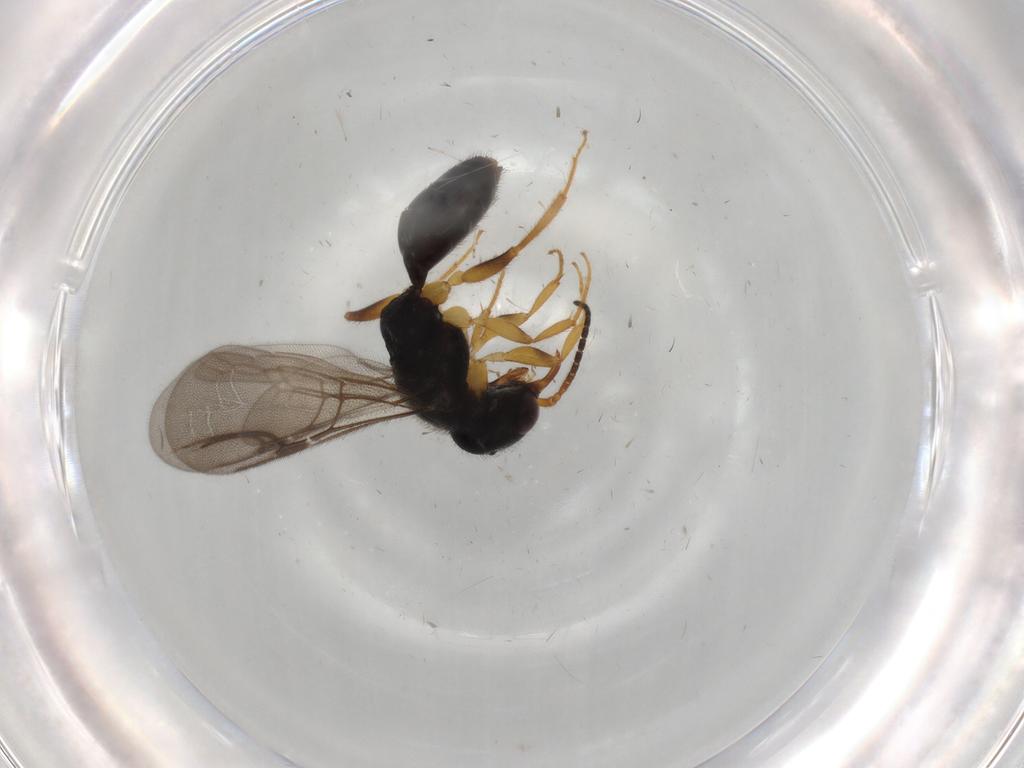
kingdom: Animalia
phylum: Arthropoda
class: Insecta
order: Hymenoptera
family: Bethylidae
